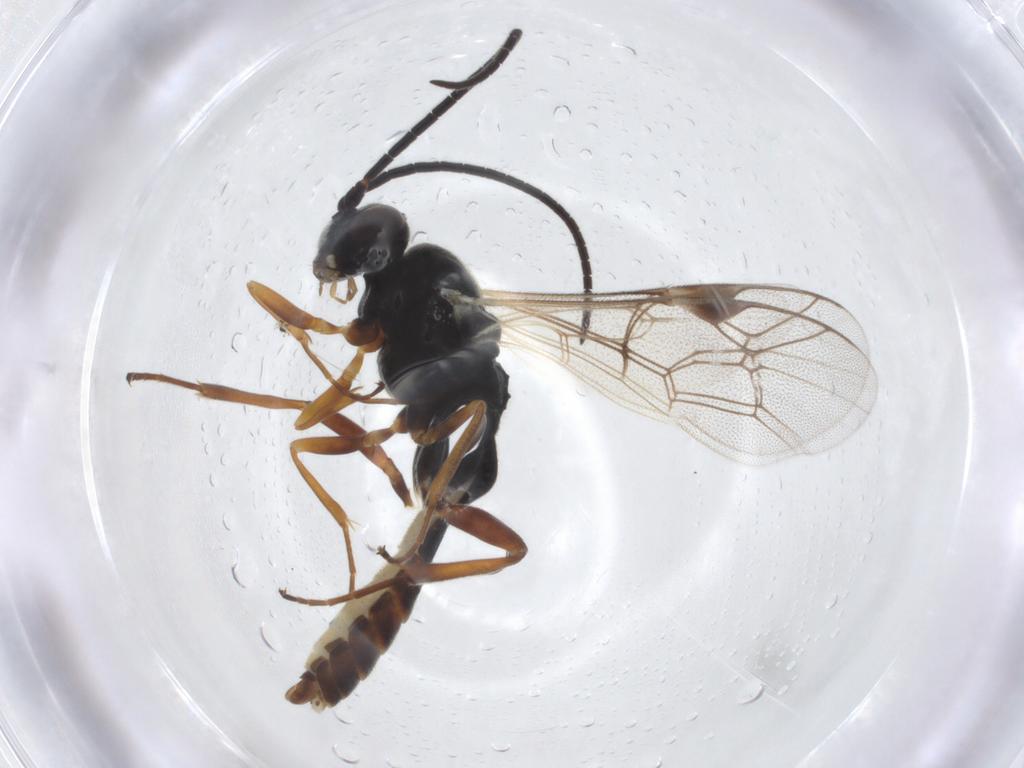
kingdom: Animalia
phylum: Arthropoda
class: Insecta
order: Hymenoptera
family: Ichneumonidae
